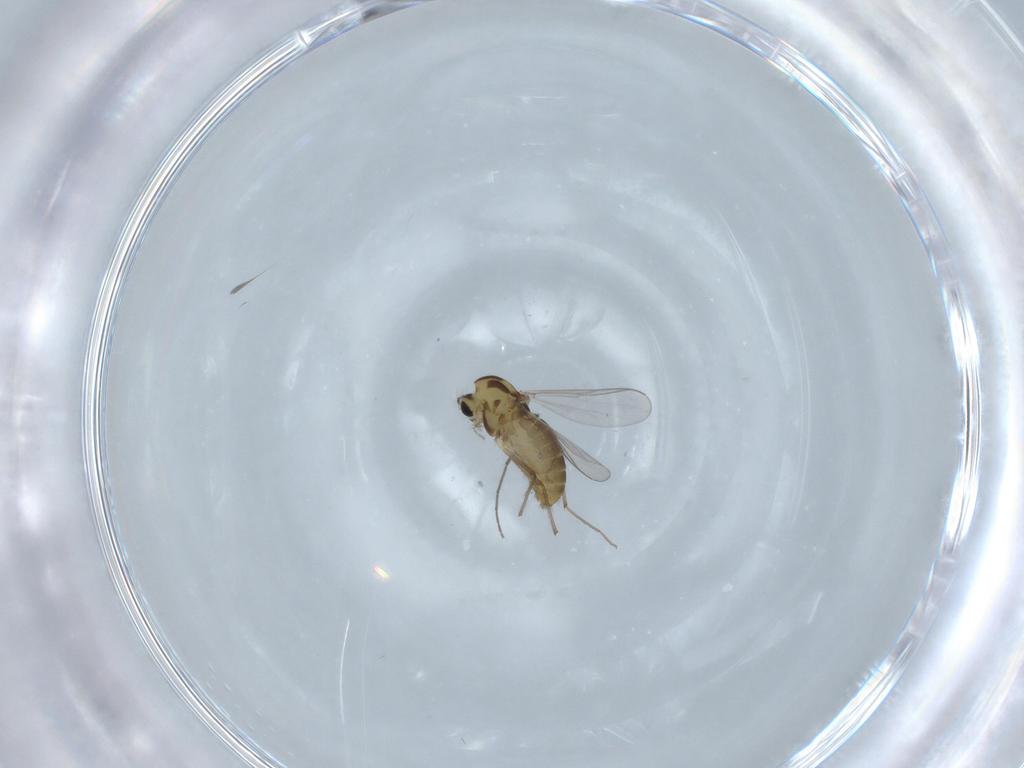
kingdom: Animalia
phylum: Arthropoda
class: Insecta
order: Diptera
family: Chironomidae
